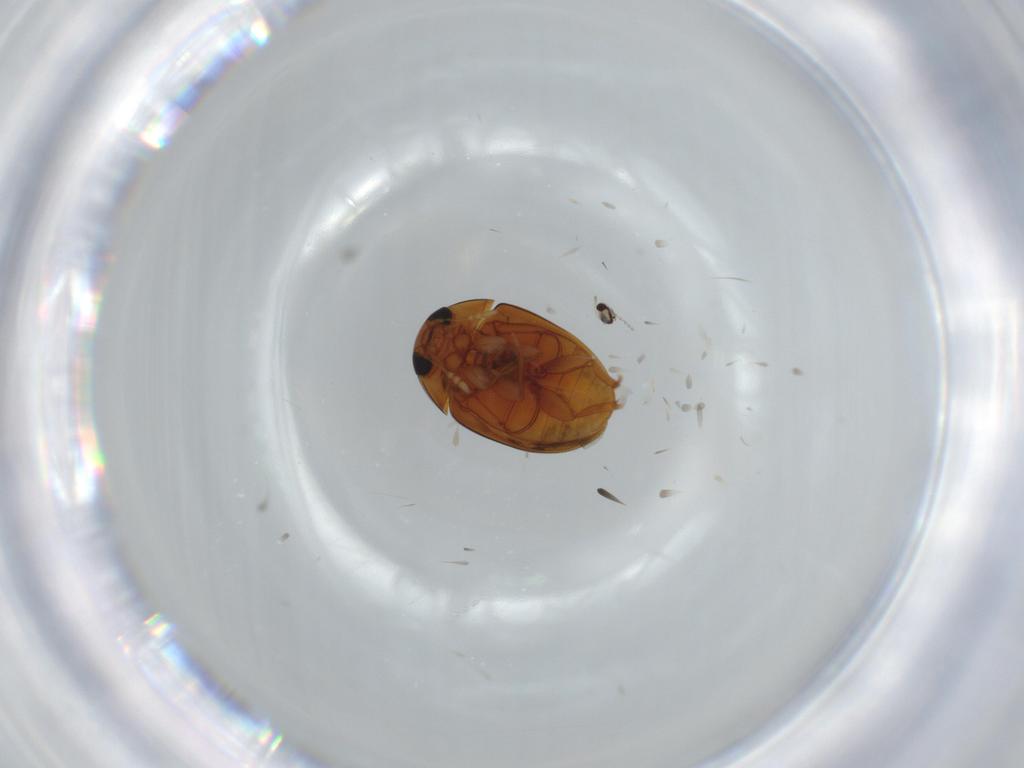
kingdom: Animalia
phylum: Arthropoda
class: Insecta
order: Coleoptera
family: Phalacridae
